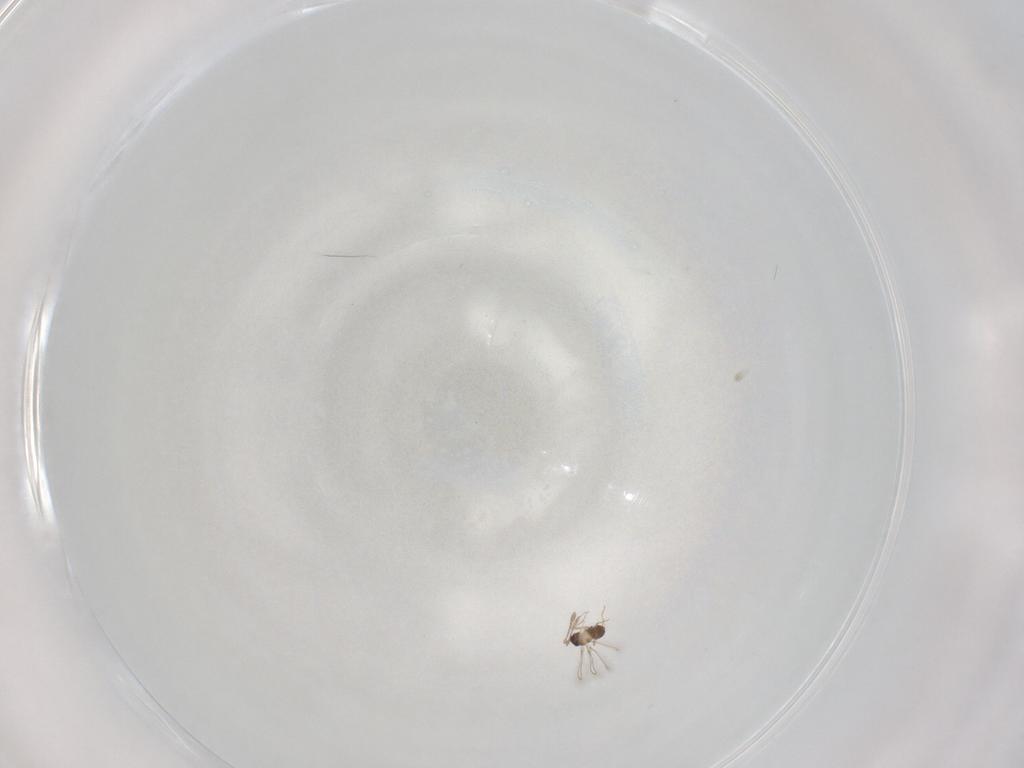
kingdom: Animalia
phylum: Arthropoda
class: Insecta
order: Hymenoptera
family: Mymaridae
